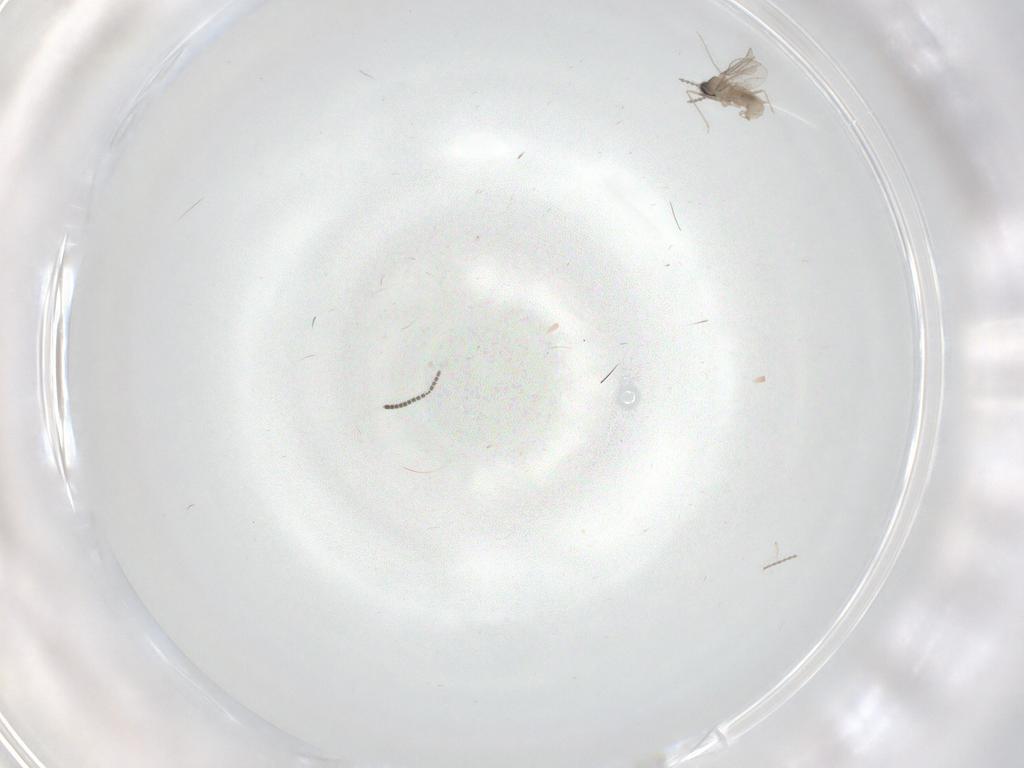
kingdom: Animalia
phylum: Arthropoda
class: Insecta
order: Diptera
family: Sciaridae
